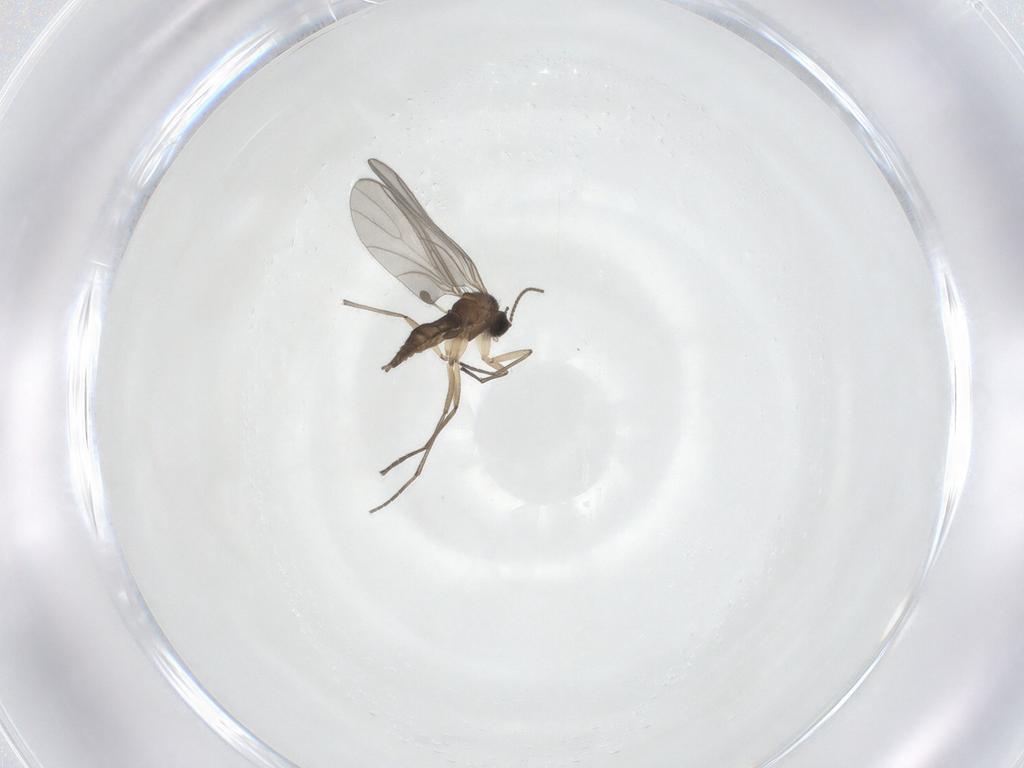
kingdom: Animalia
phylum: Arthropoda
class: Insecta
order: Diptera
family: Sciaridae
